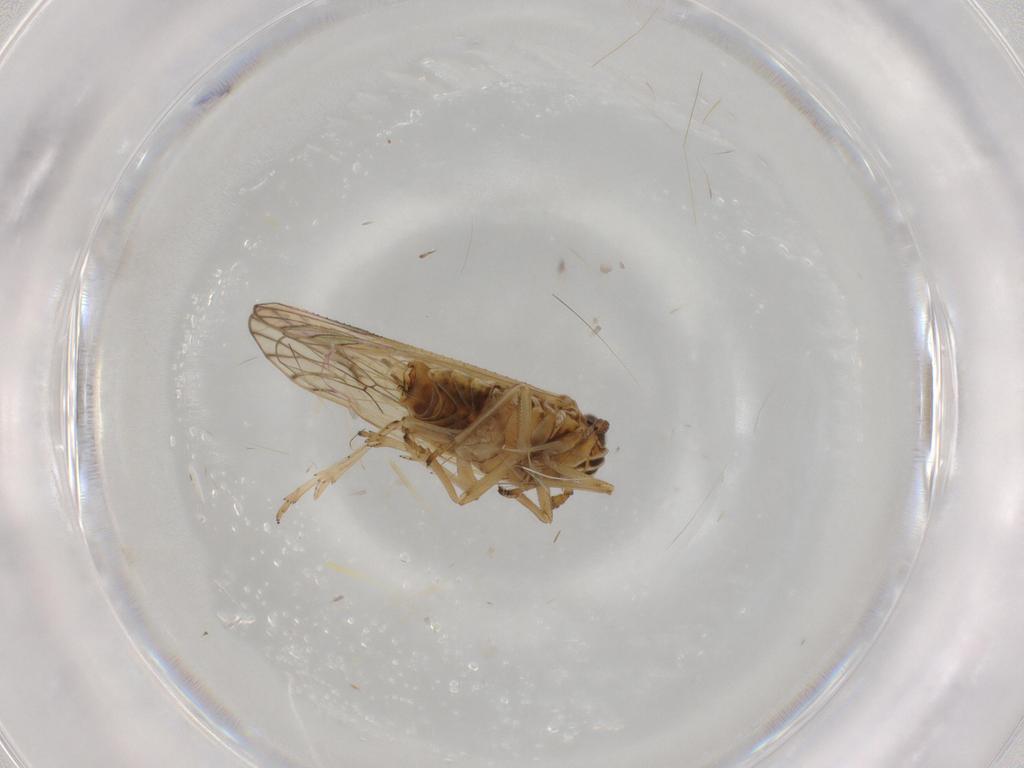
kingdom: Animalia
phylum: Arthropoda
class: Insecta
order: Hemiptera
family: Delphacidae
